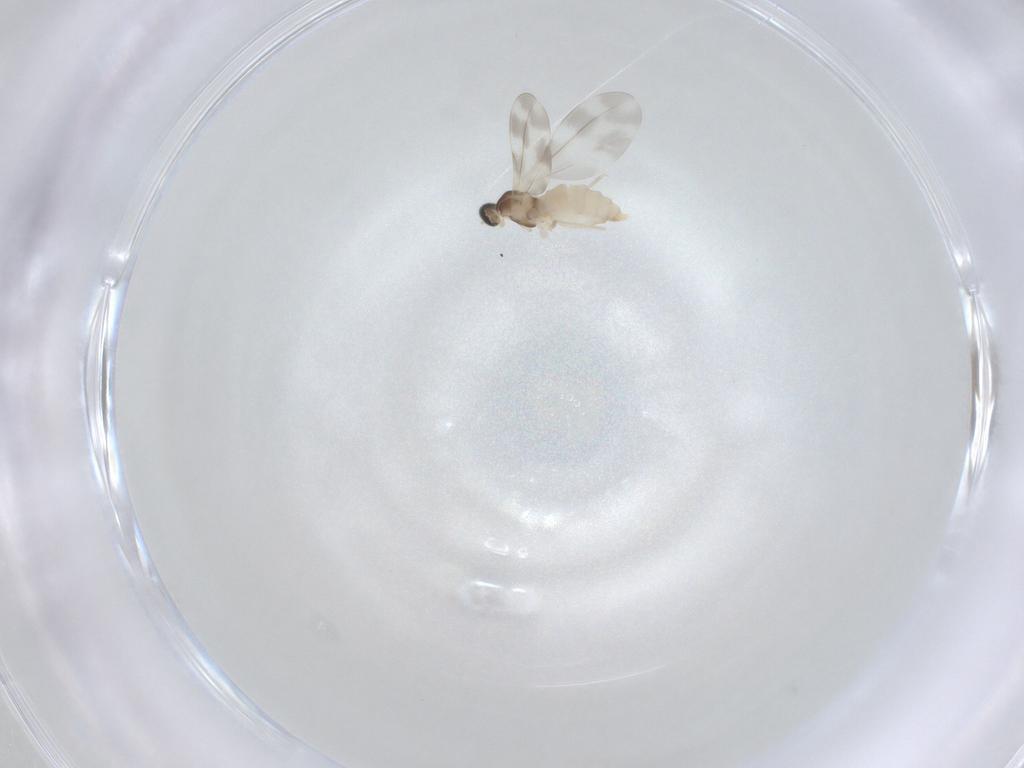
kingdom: Animalia
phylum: Arthropoda
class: Insecta
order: Diptera
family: Cecidomyiidae
